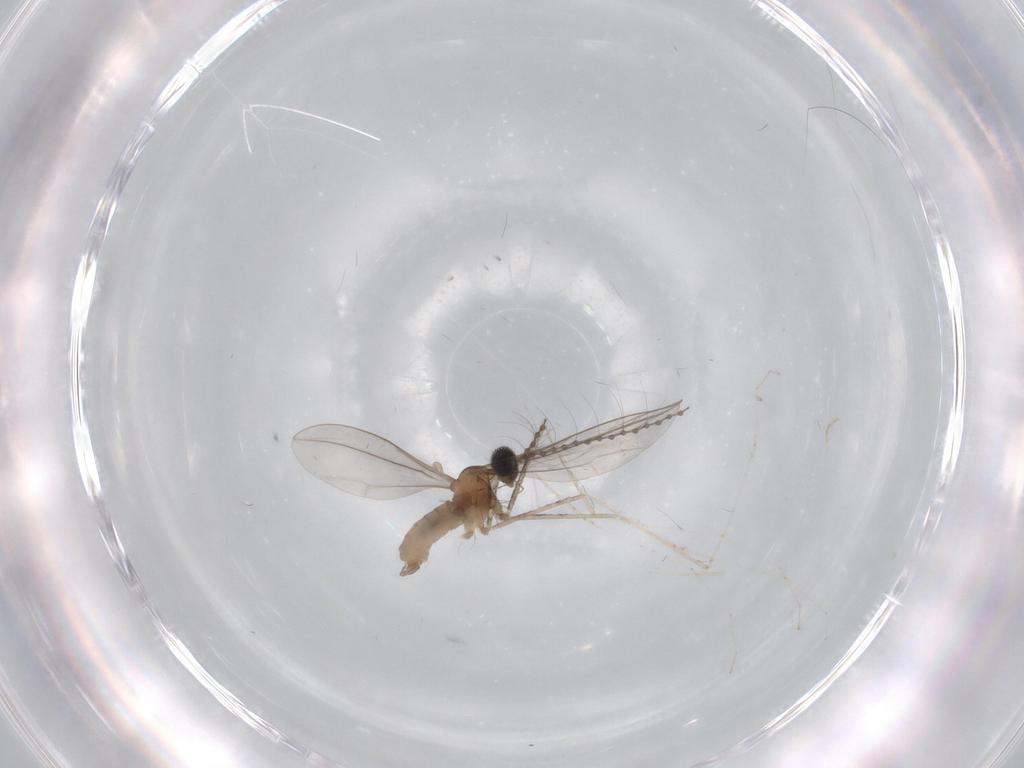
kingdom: Animalia
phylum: Arthropoda
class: Insecta
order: Diptera
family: Cecidomyiidae
